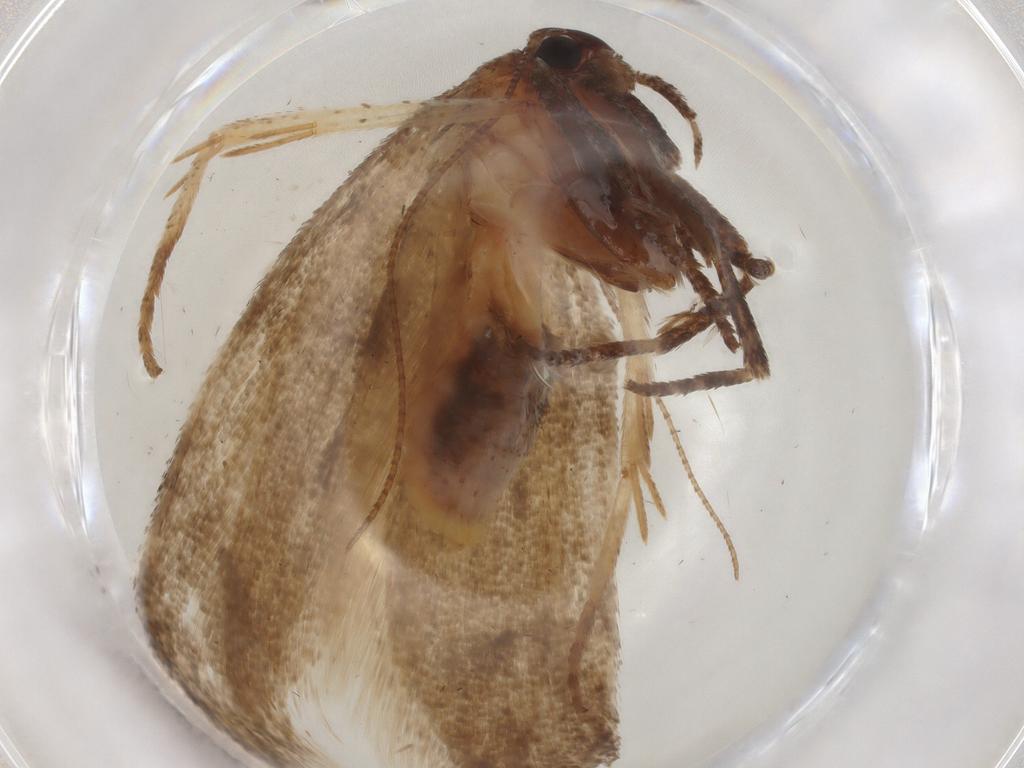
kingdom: Animalia
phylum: Arthropoda
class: Insecta
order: Lepidoptera
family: Cosmopterigidae
